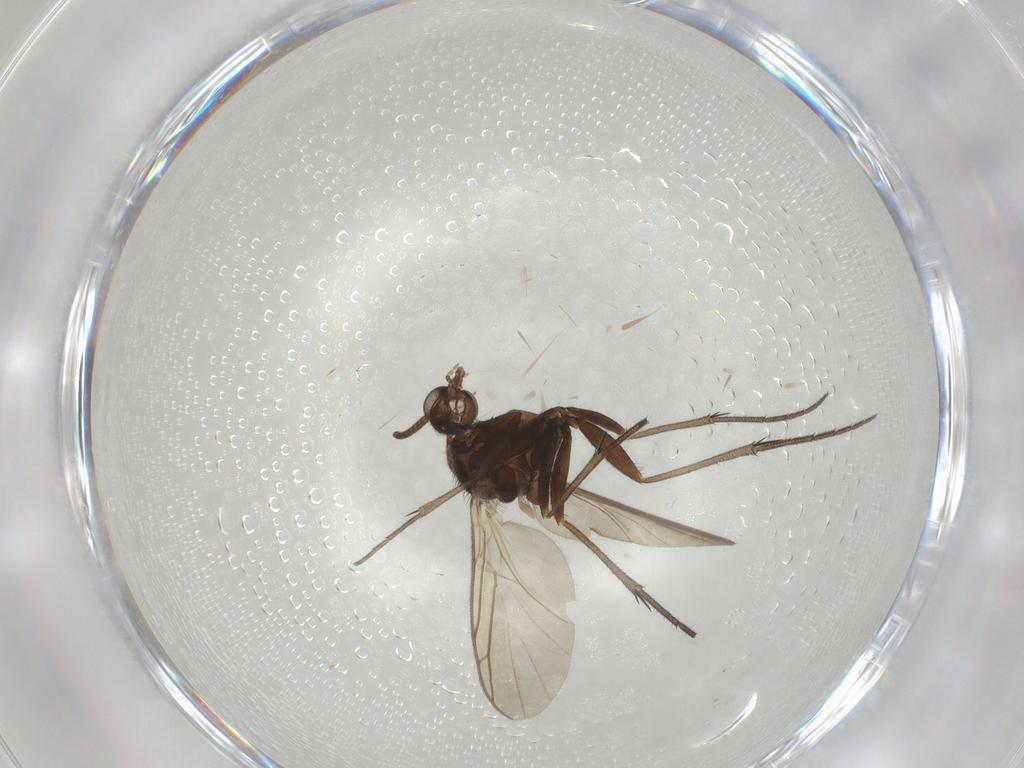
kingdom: Animalia
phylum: Arthropoda
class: Insecta
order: Diptera
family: Keroplatidae
